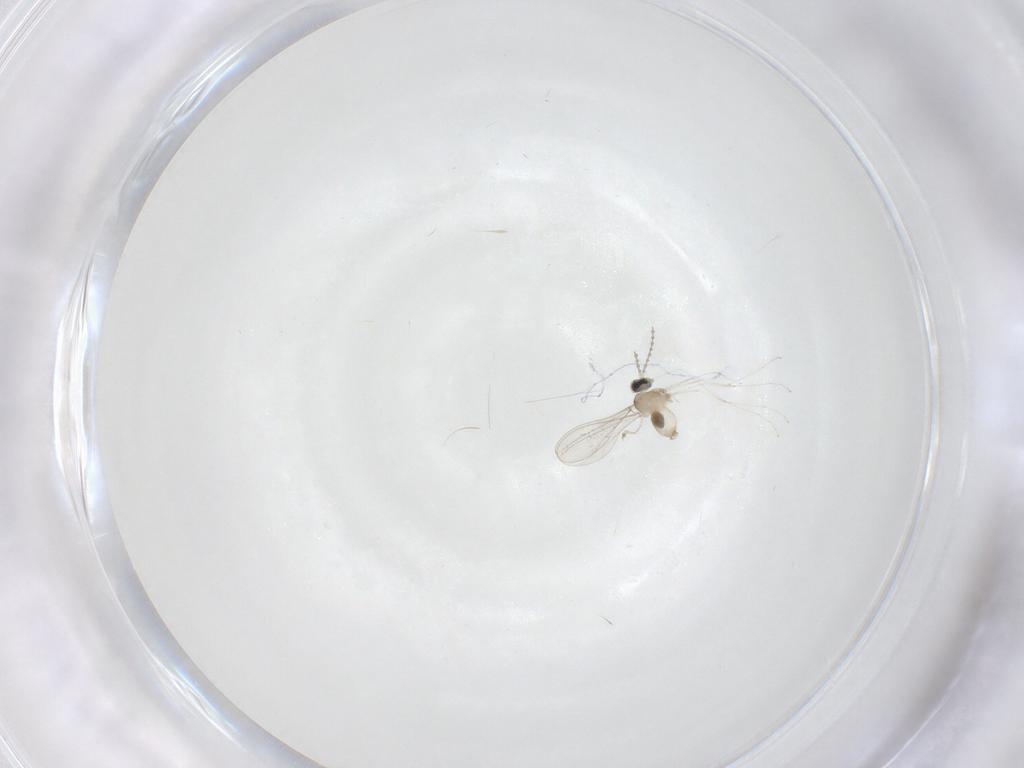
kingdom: Animalia
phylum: Arthropoda
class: Insecta
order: Diptera
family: Cecidomyiidae
